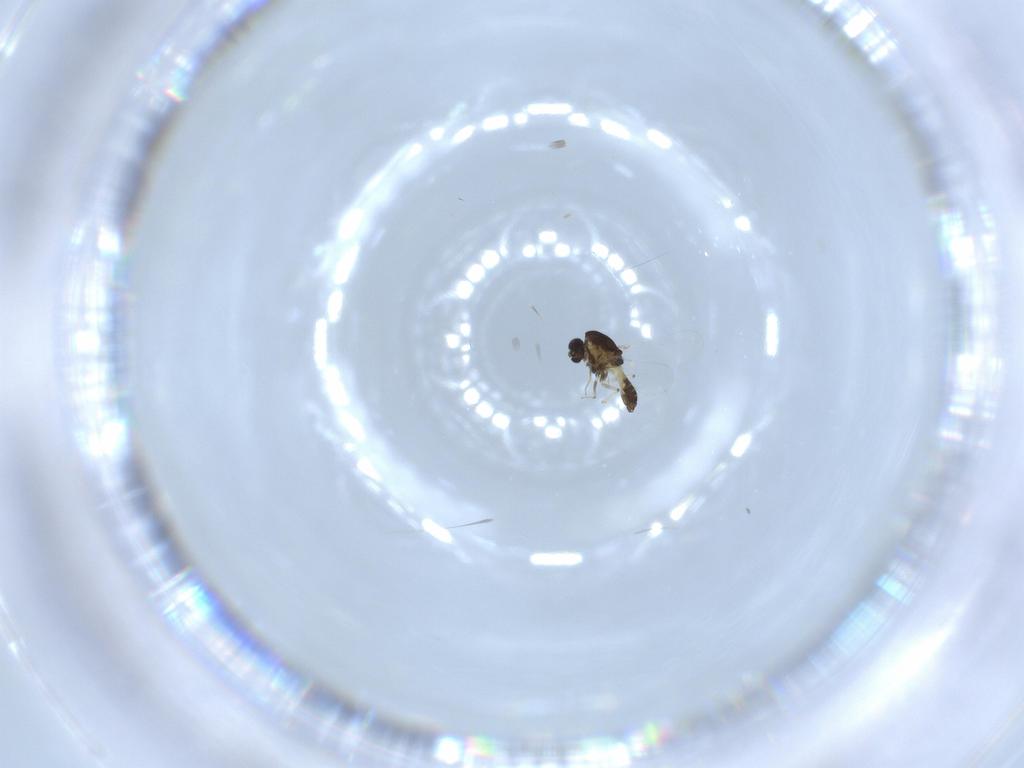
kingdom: Animalia
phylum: Arthropoda
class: Insecta
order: Diptera
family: Chironomidae
